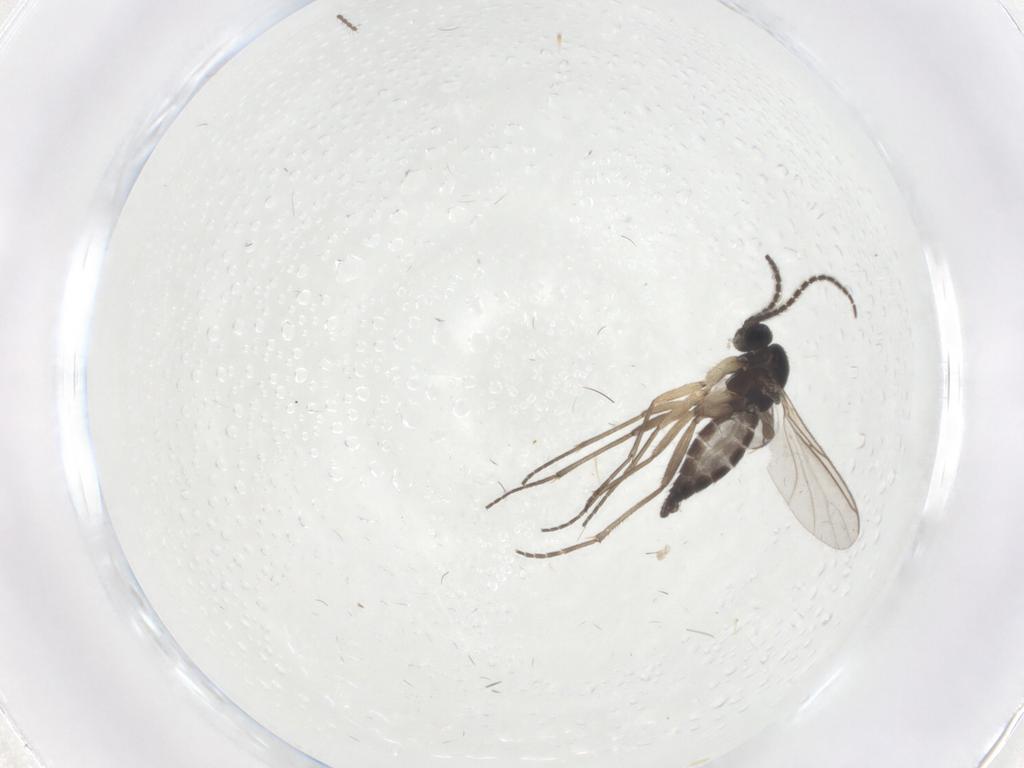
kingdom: Animalia
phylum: Arthropoda
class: Insecta
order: Diptera
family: Sciaridae
